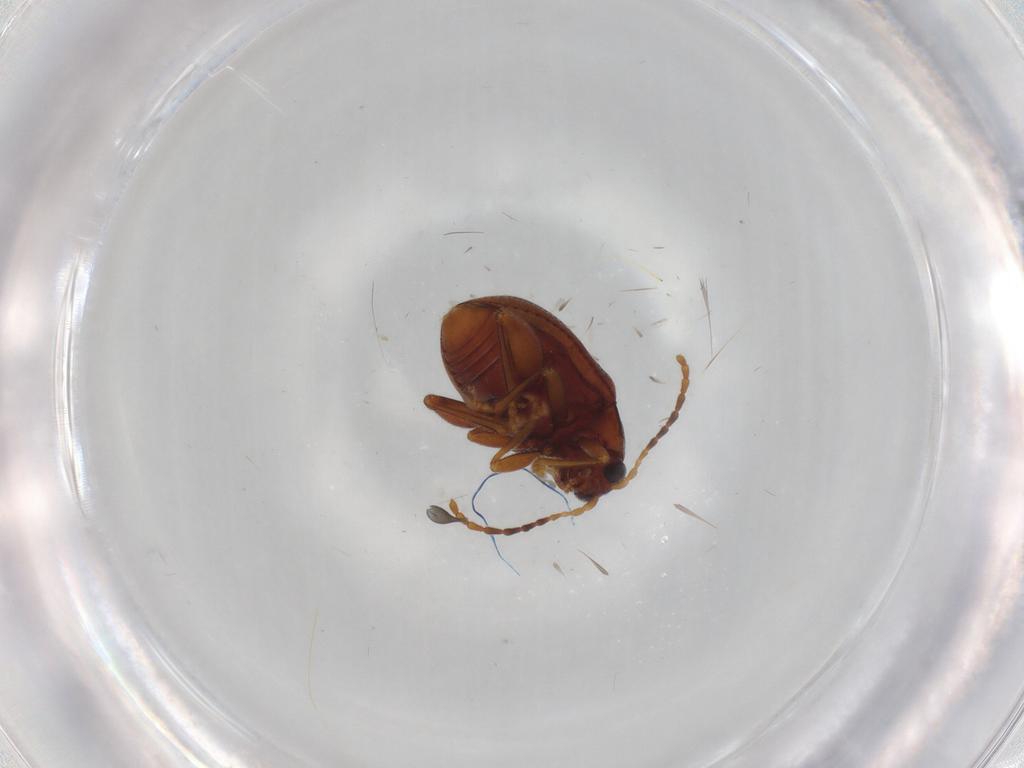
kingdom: Animalia
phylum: Arthropoda
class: Insecta
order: Coleoptera
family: Chrysomelidae
